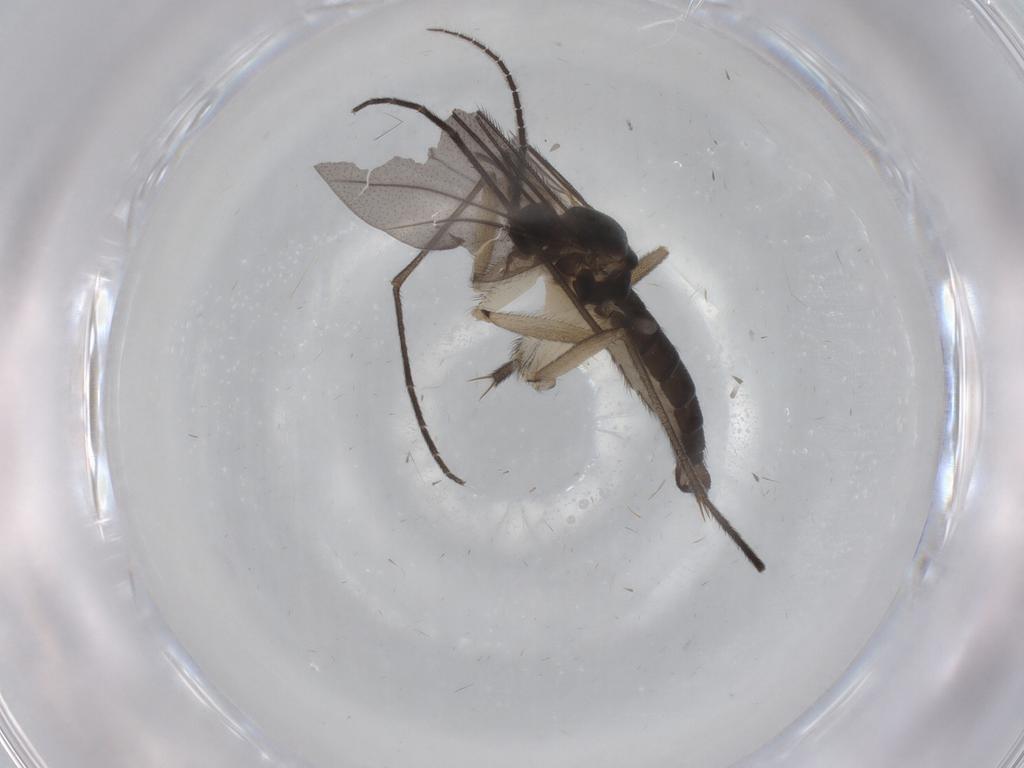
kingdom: Animalia
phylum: Arthropoda
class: Insecta
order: Diptera
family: Sciaridae
